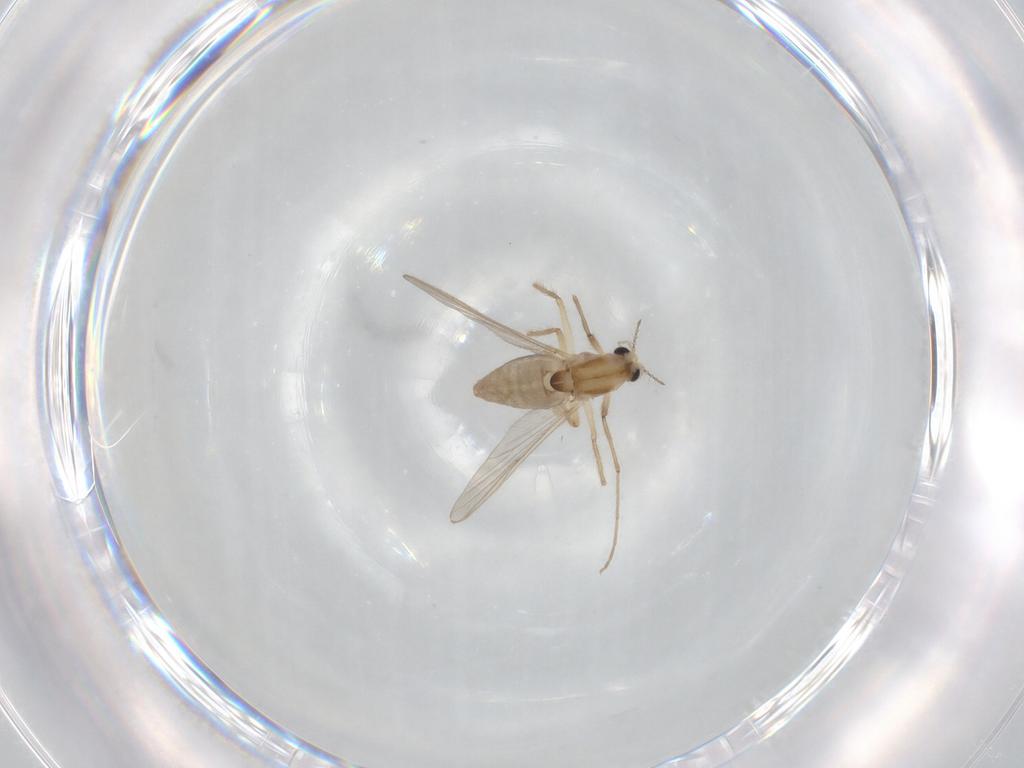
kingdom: Animalia
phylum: Arthropoda
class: Insecta
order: Diptera
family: Chironomidae
